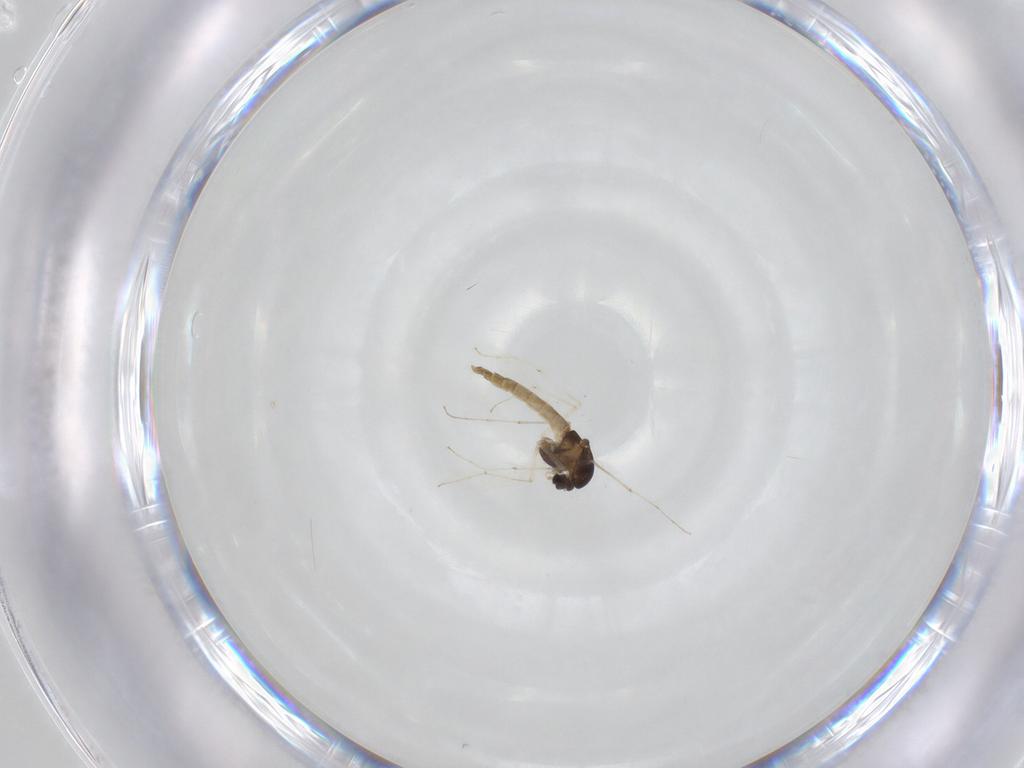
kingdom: Animalia
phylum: Arthropoda
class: Insecta
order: Diptera
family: Chironomidae
